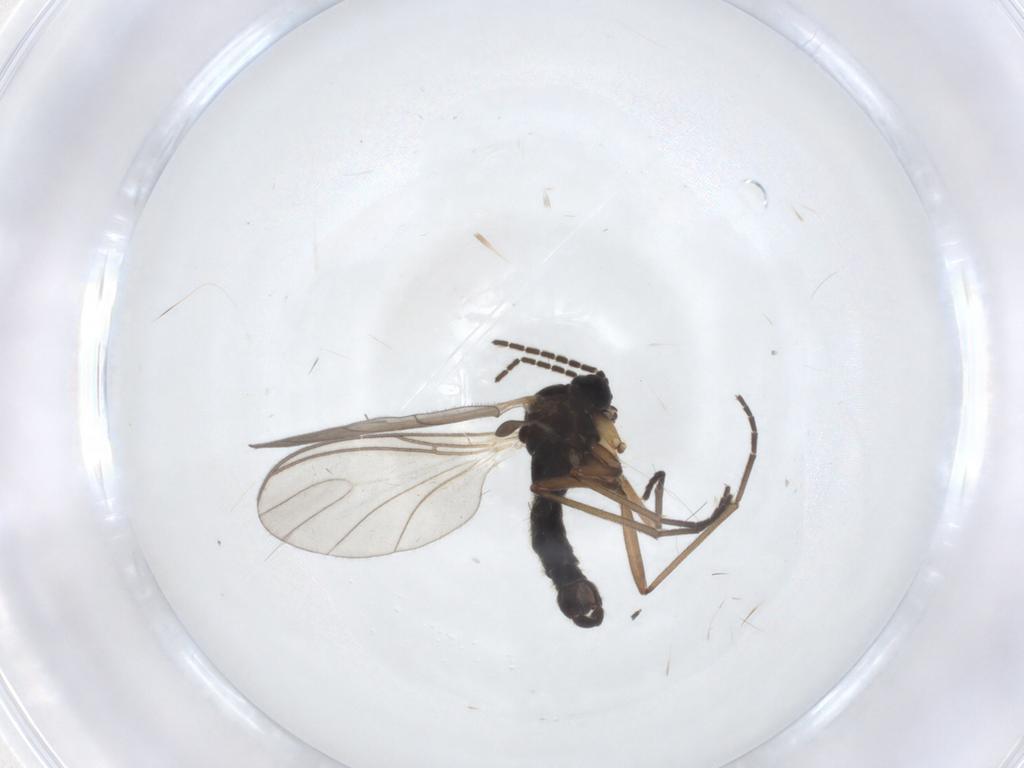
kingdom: Animalia
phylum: Arthropoda
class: Insecta
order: Diptera
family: Sciaridae
